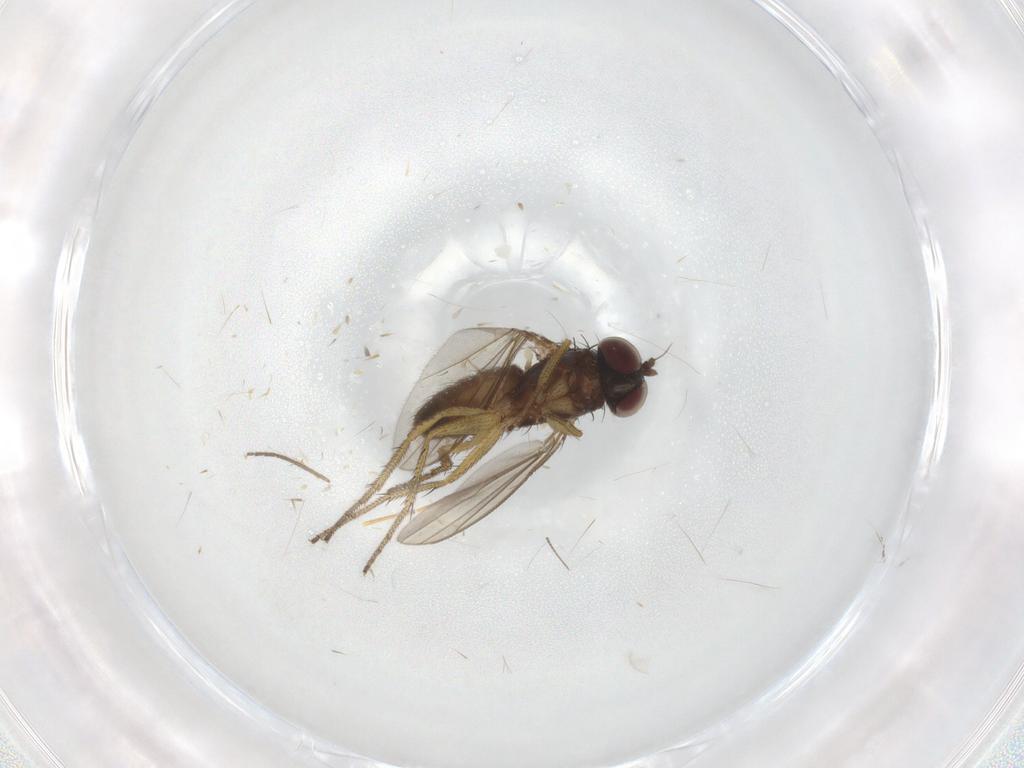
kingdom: Animalia
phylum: Arthropoda
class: Insecta
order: Diptera
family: Dolichopodidae
